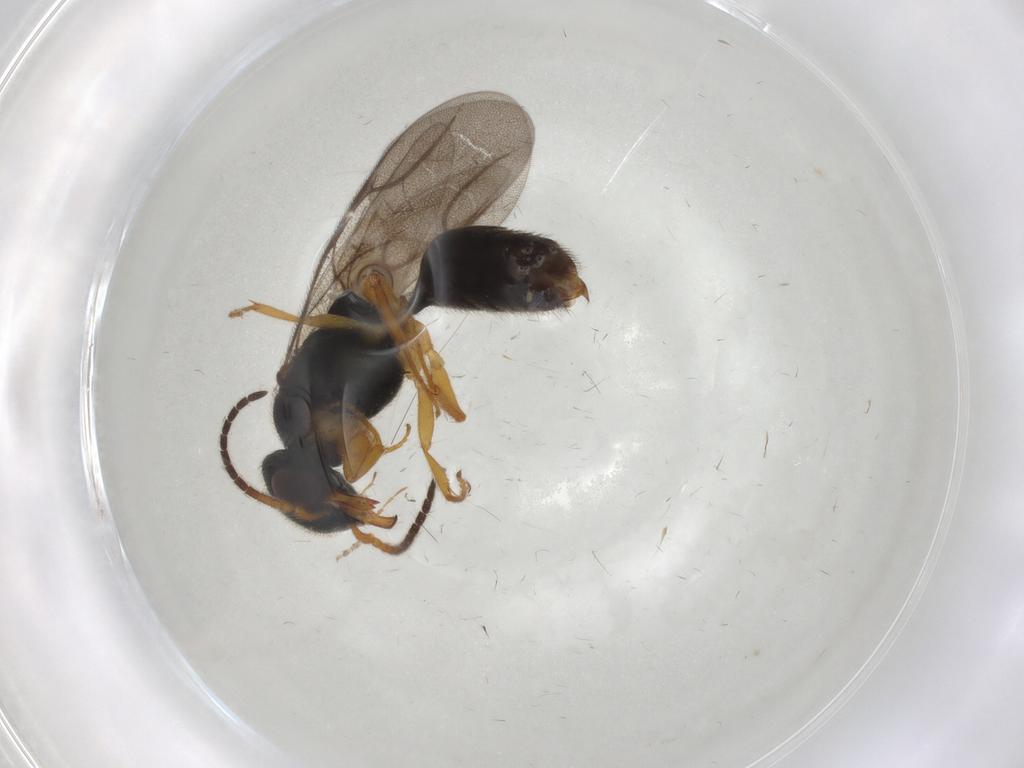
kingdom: Animalia
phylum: Arthropoda
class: Insecta
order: Hymenoptera
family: Bethylidae
